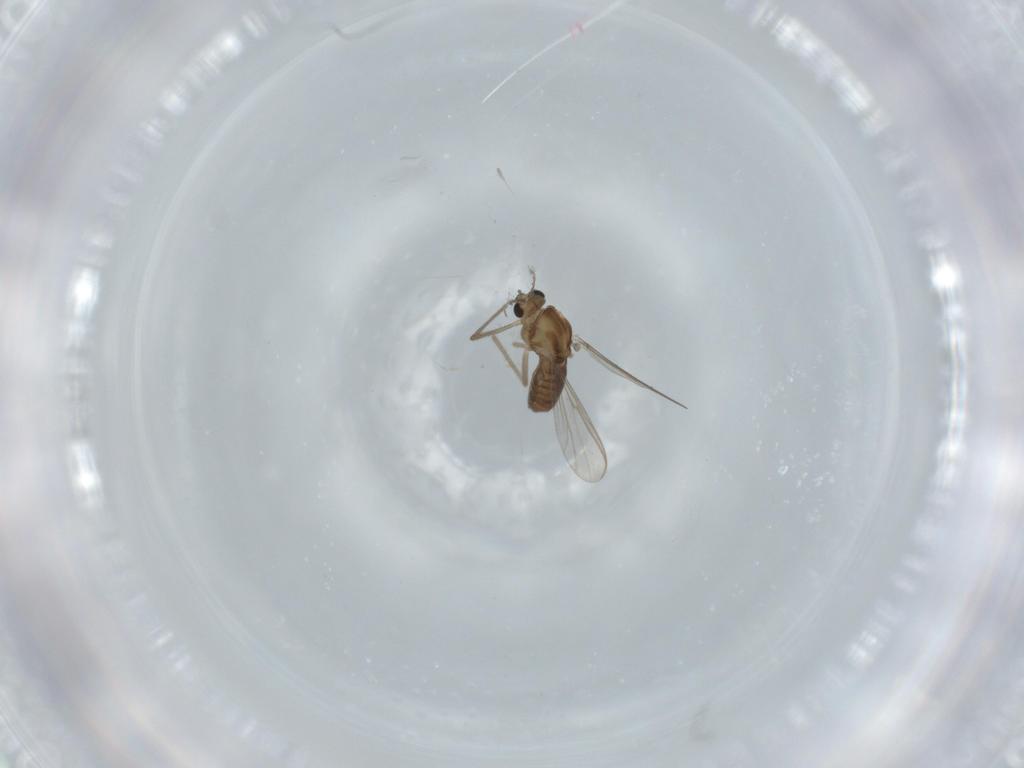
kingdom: Animalia
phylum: Arthropoda
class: Insecta
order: Diptera
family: Chironomidae
